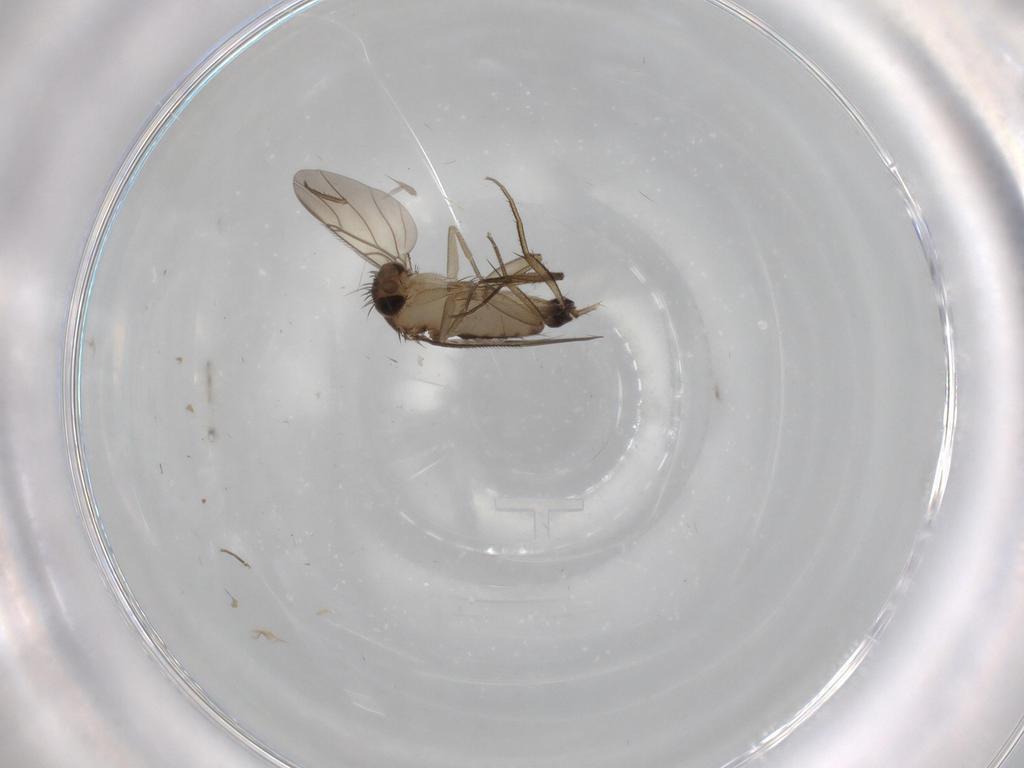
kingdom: Animalia
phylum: Arthropoda
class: Insecta
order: Diptera
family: Phoridae
